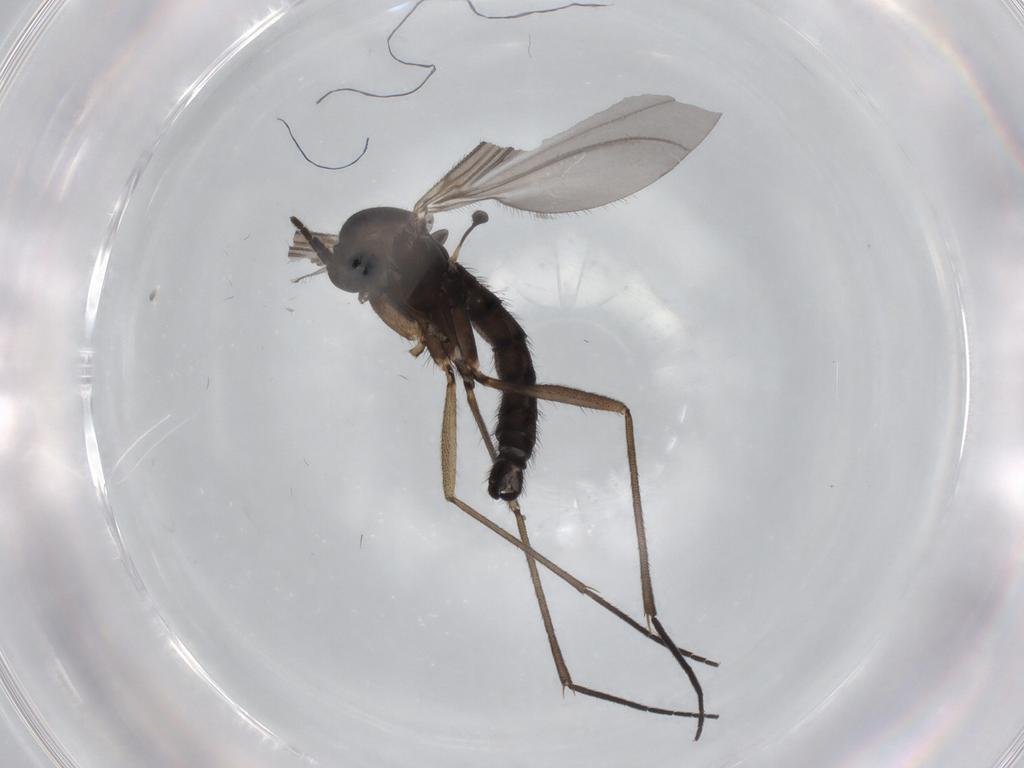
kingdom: Animalia
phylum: Arthropoda
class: Insecta
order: Diptera
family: Sciaridae
